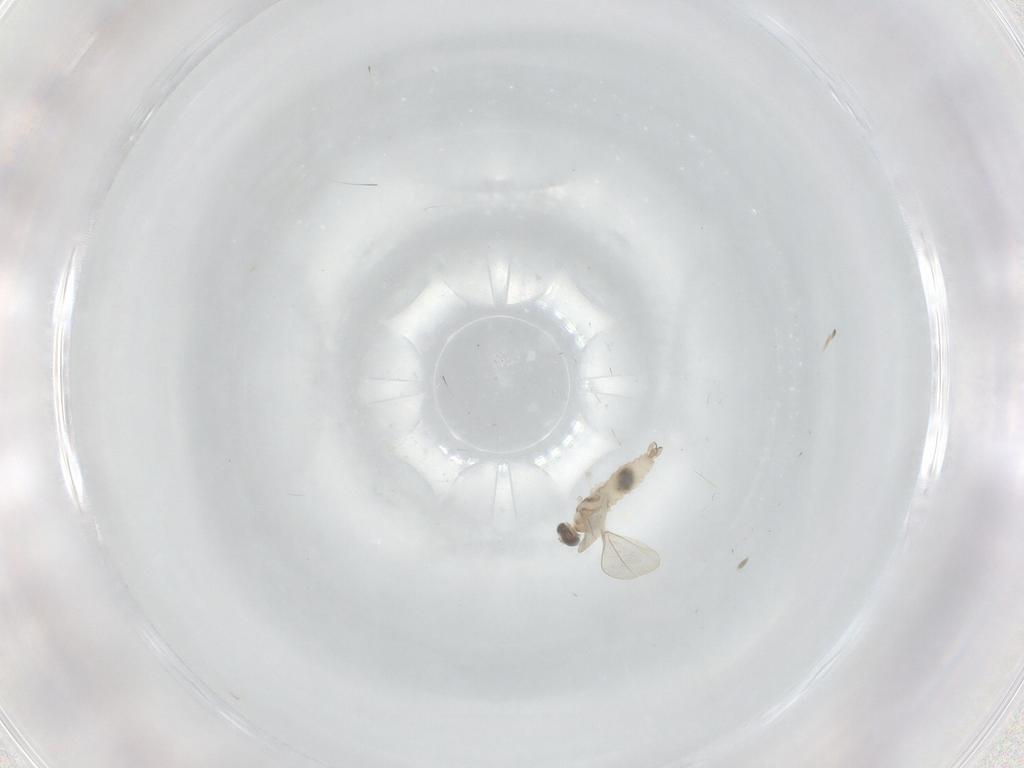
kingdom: Animalia
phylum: Arthropoda
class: Insecta
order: Diptera
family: Cecidomyiidae
